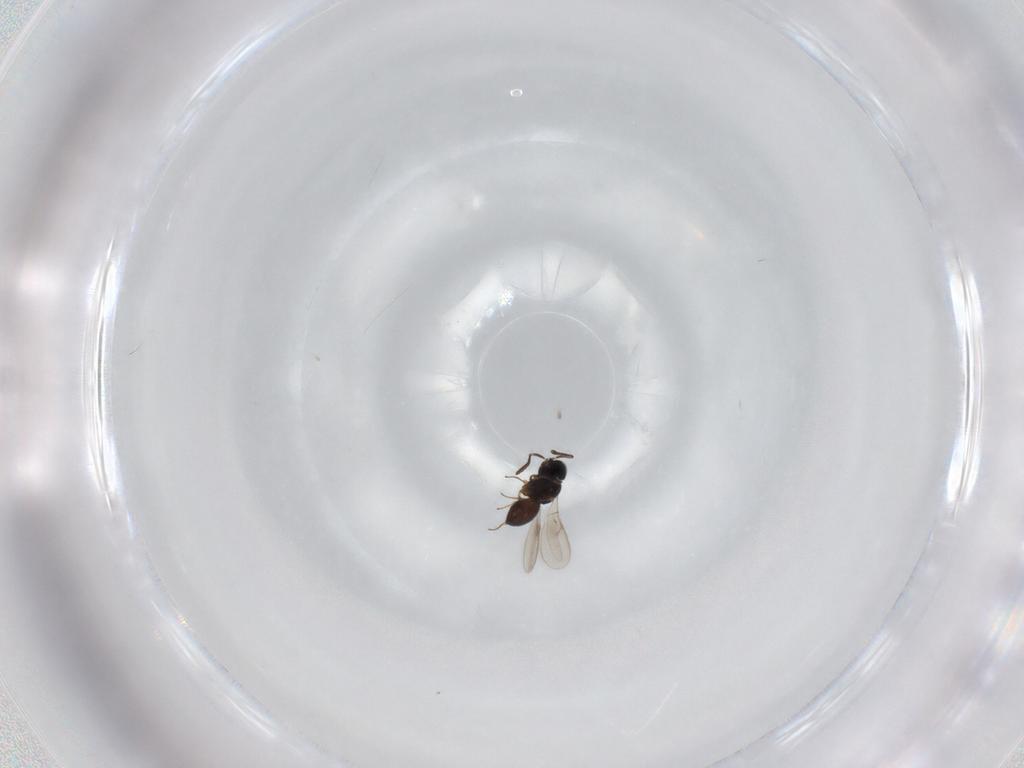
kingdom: Animalia
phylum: Arthropoda
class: Insecta
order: Hymenoptera
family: Scelionidae
